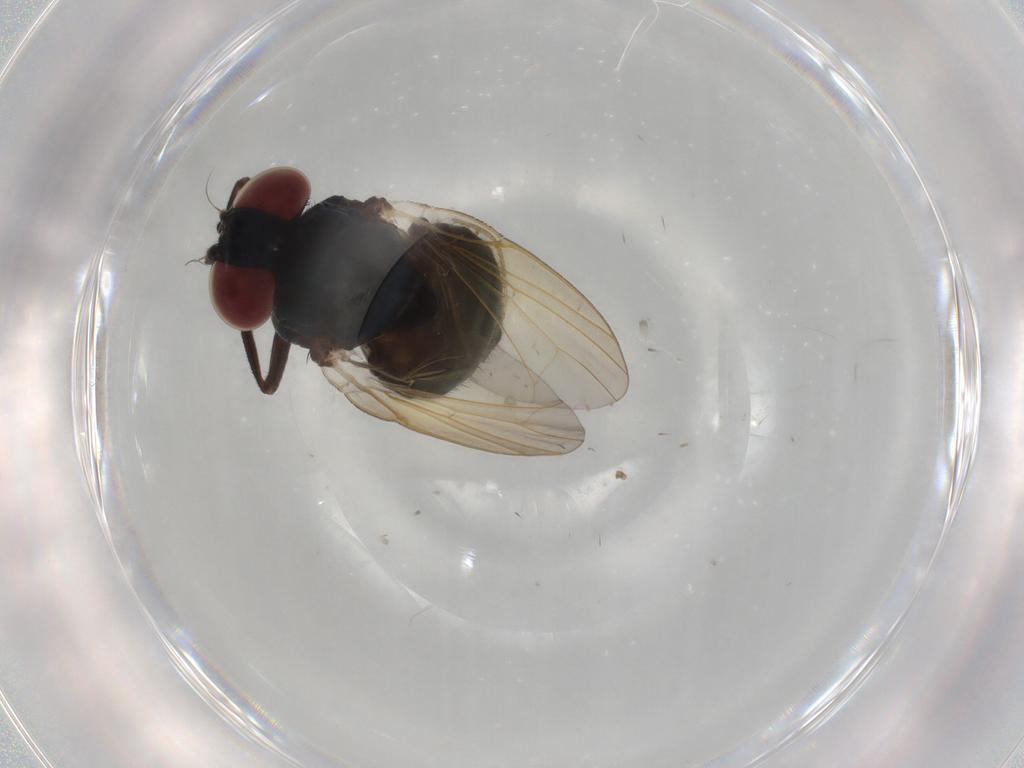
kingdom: Animalia
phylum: Arthropoda
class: Insecta
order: Diptera
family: Lonchaeidae
